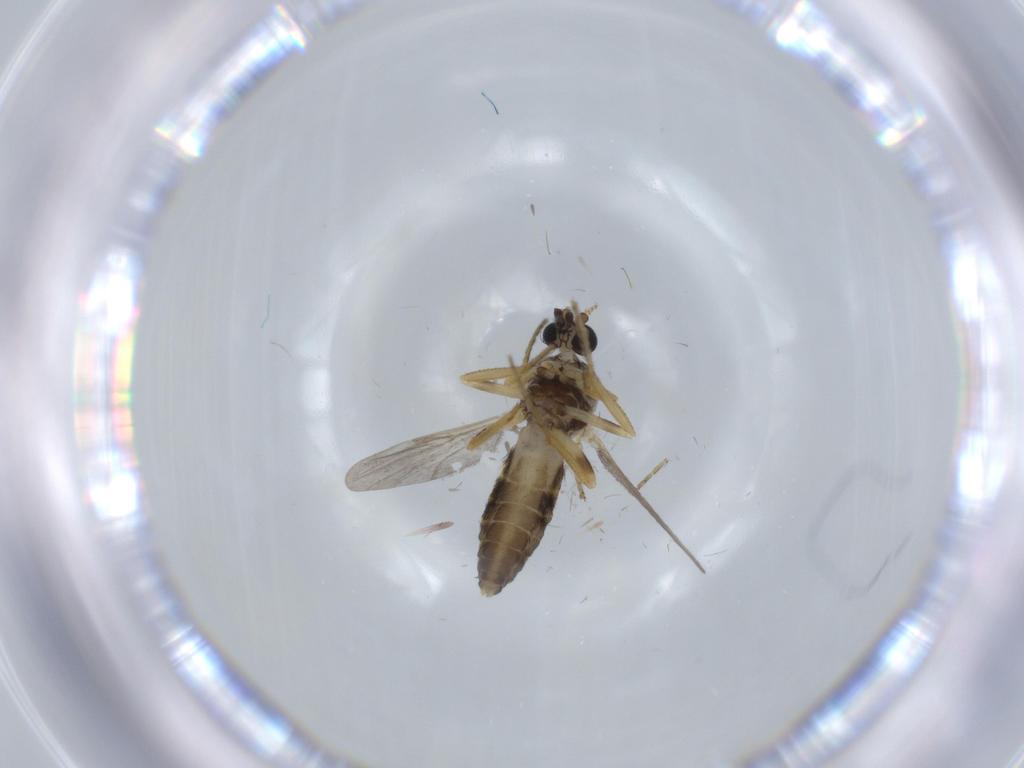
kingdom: Animalia
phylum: Arthropoda
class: Insecta
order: Diptera
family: Ceratopogonidae
